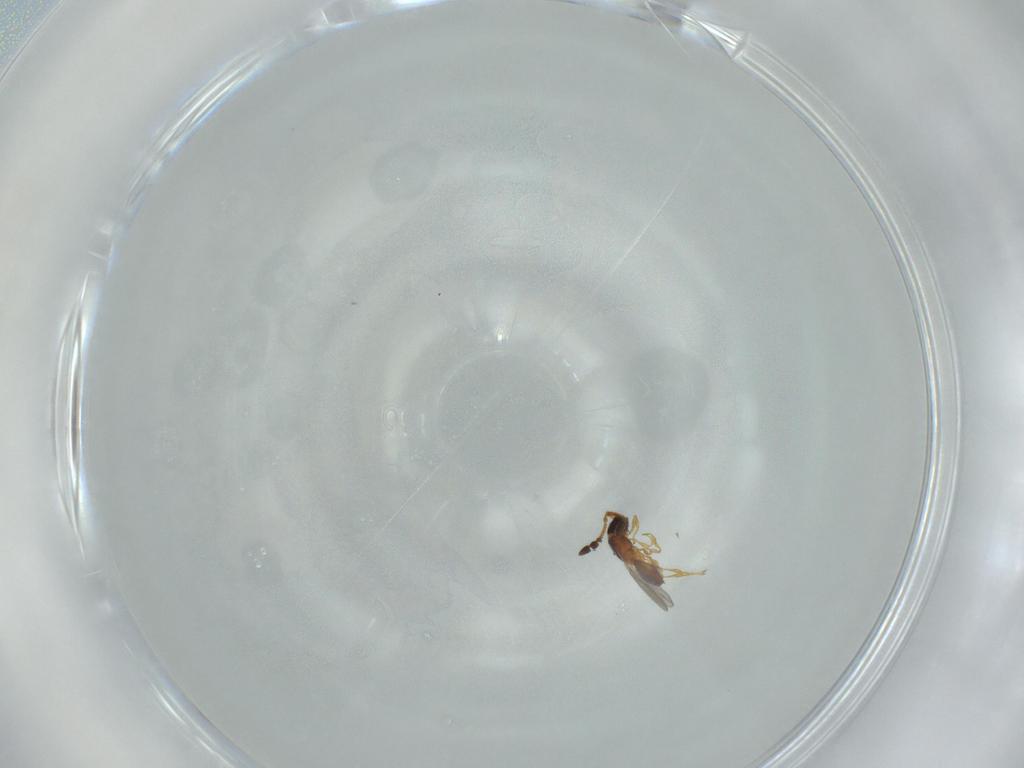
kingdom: Animalia
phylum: Arthropoda
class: Insecta
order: Hymenoptera
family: Diapriidae
